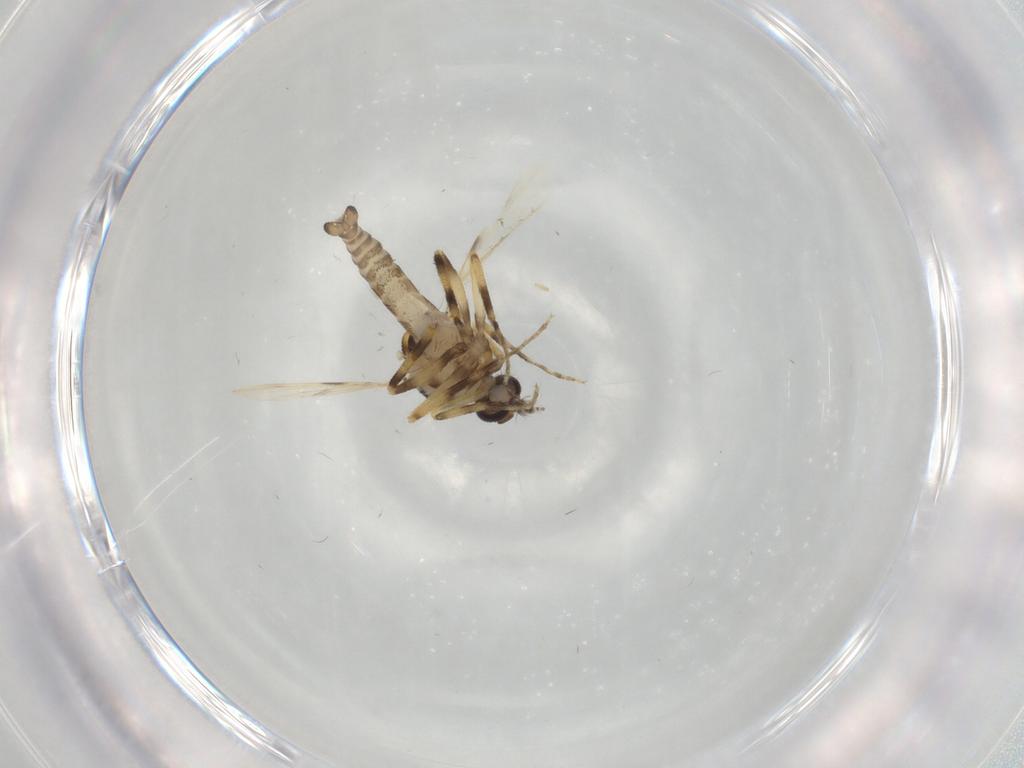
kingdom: Animalia
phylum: Arthropoda
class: Insecta
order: Diptera
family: Ceratopogonidae
